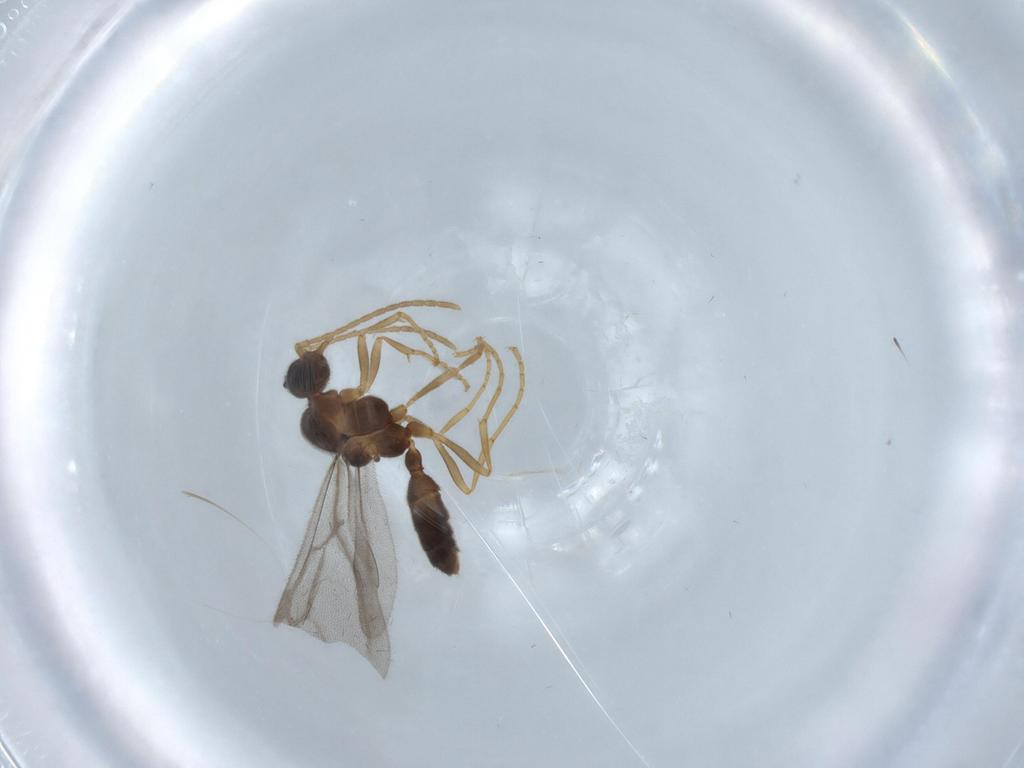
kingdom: Animalia
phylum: Arthropoda
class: Insecta
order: Hymenoptera
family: Formicidae
